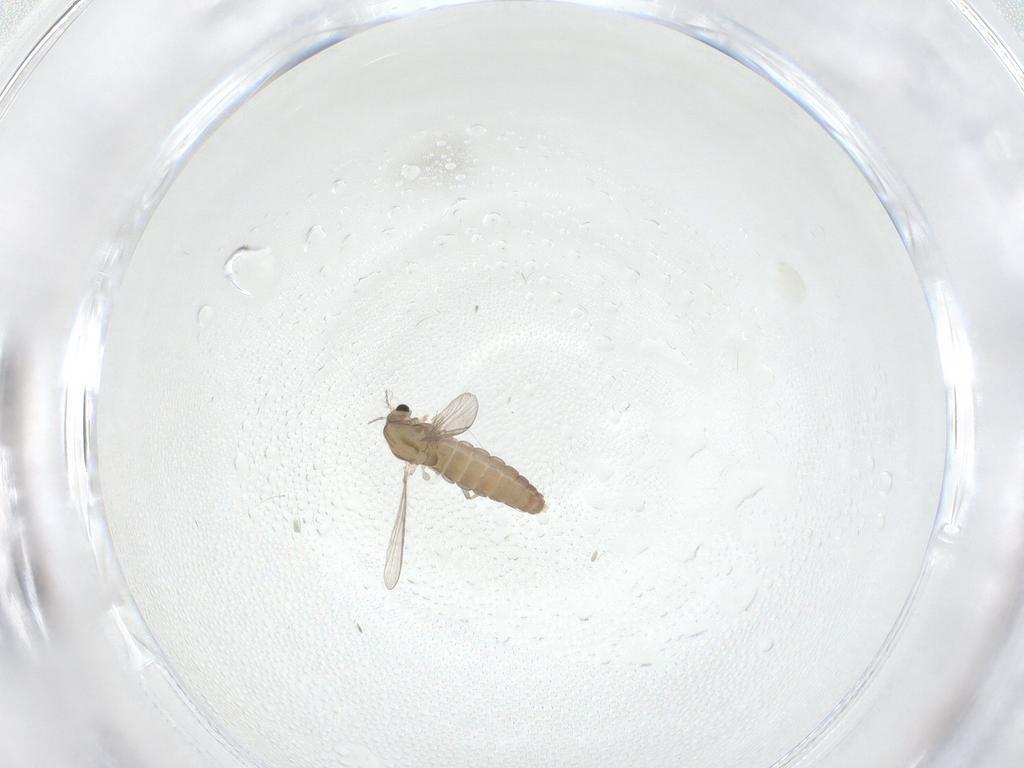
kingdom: Animalia
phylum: Arthropoda
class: Insecta
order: Diptera
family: Chironomidae
